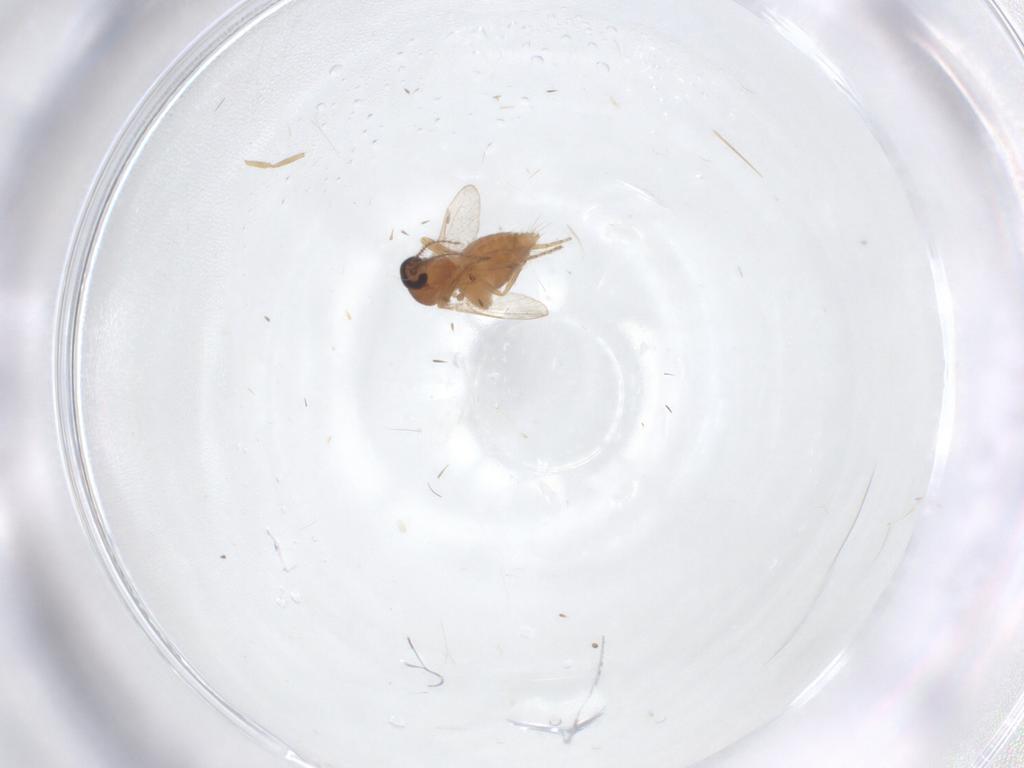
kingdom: Animalia
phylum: Arthropoda
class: Insecta
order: Diptera
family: Ceratopogonidae
